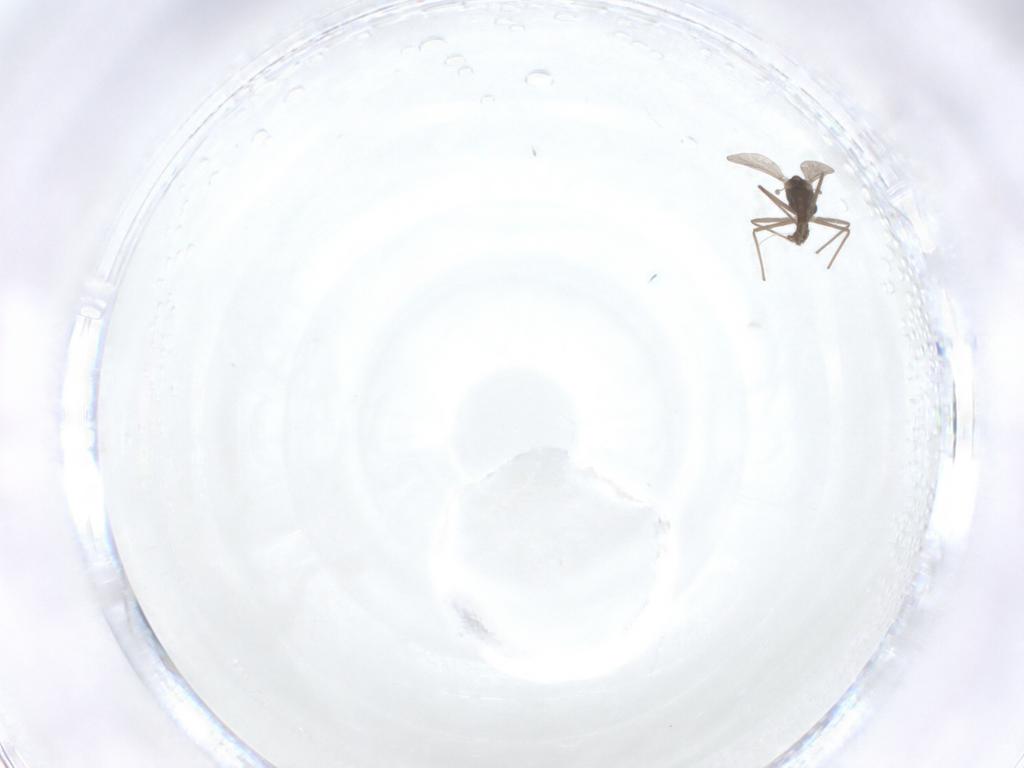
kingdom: Animalia
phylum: Arthropoda
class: Insecta
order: Diptera
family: Chironomidae
